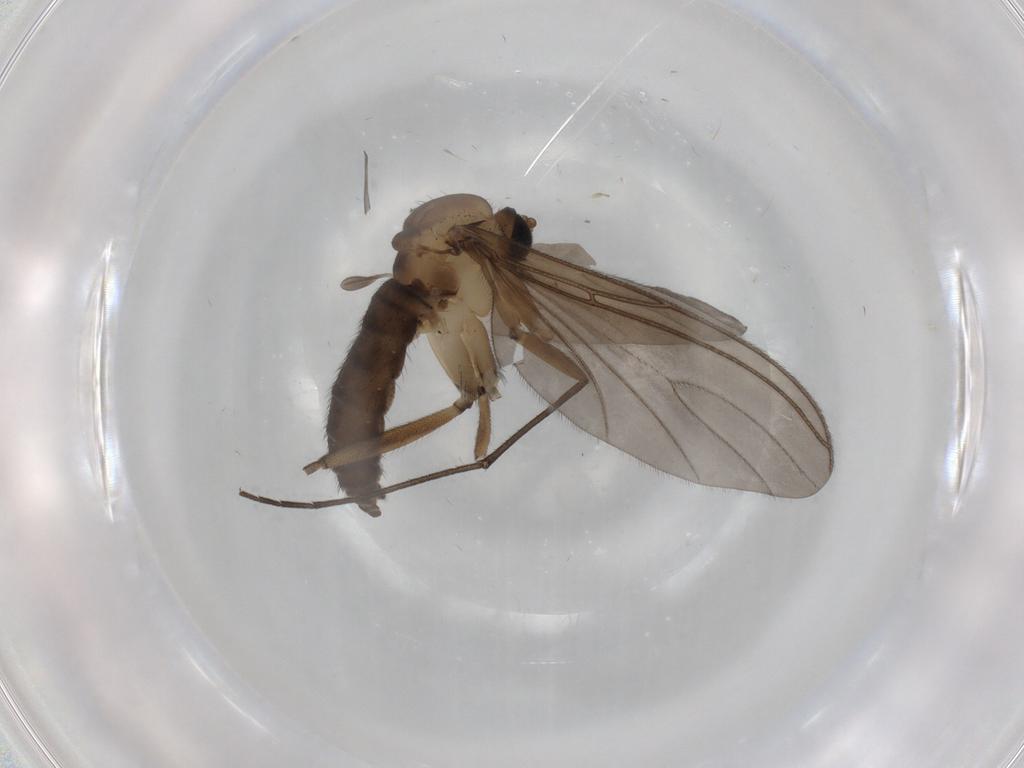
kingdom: Animalia
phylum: Arthropoda
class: Insecta
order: Diptera
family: Sciaridae
